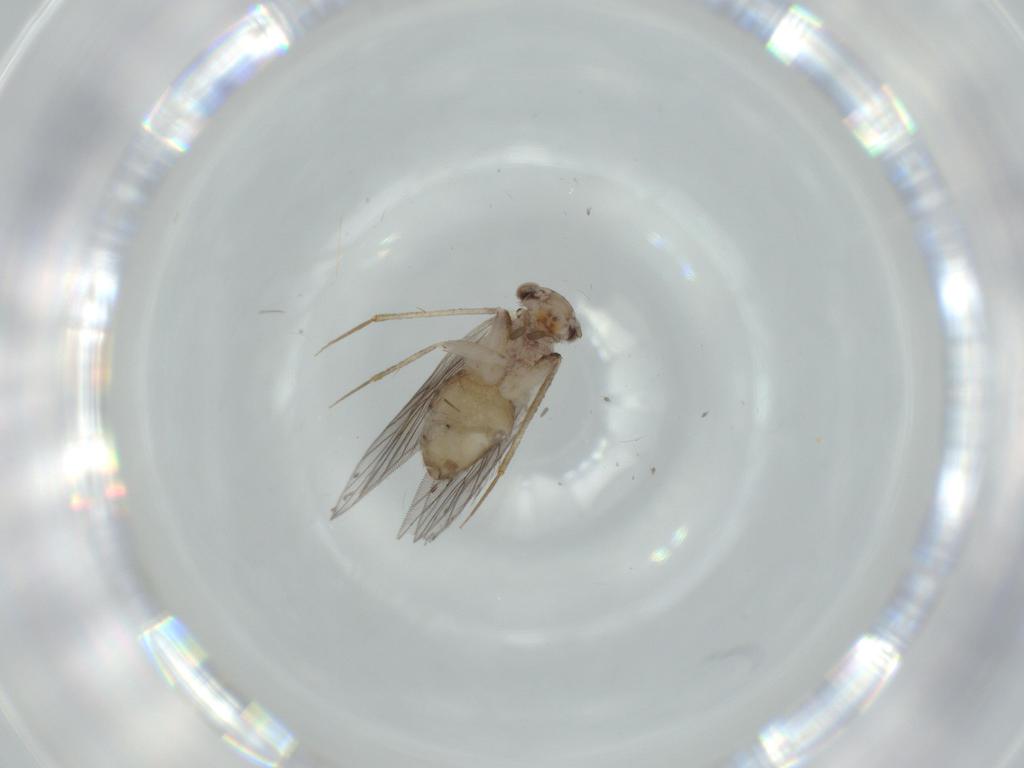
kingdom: Animalia
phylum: Arthropoda
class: Insecta
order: Psocodea
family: Lepidopsocidae
